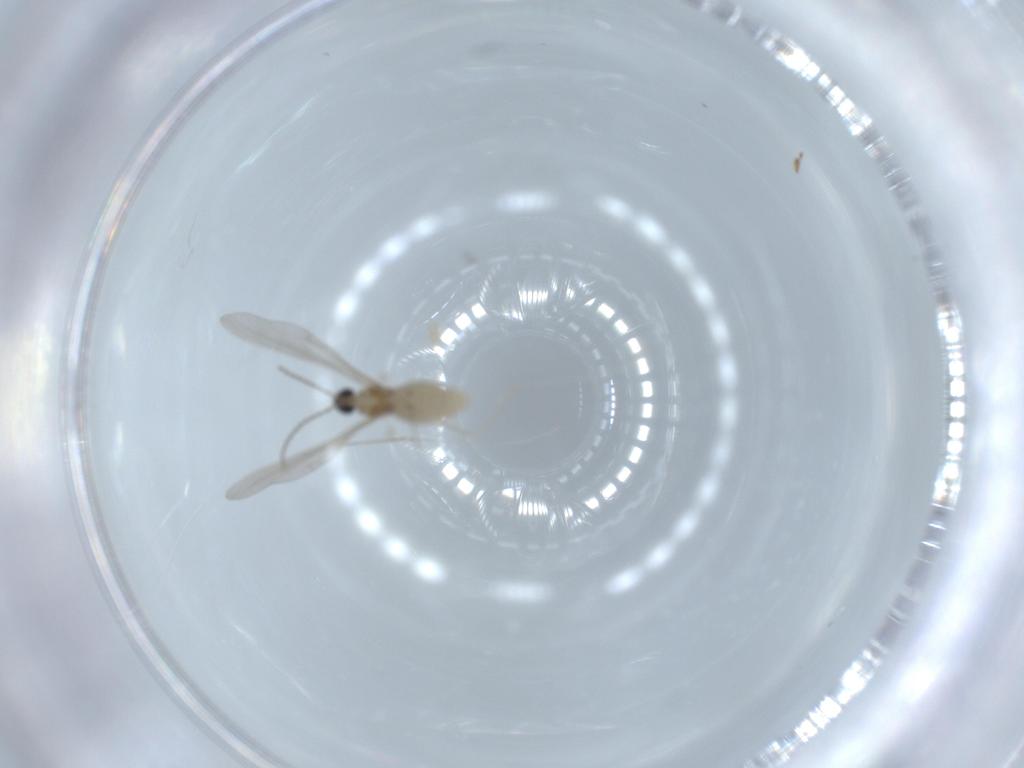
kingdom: Animalia
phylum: Arthropoda
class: Insecta
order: Diptera
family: Cecidomyiidae
